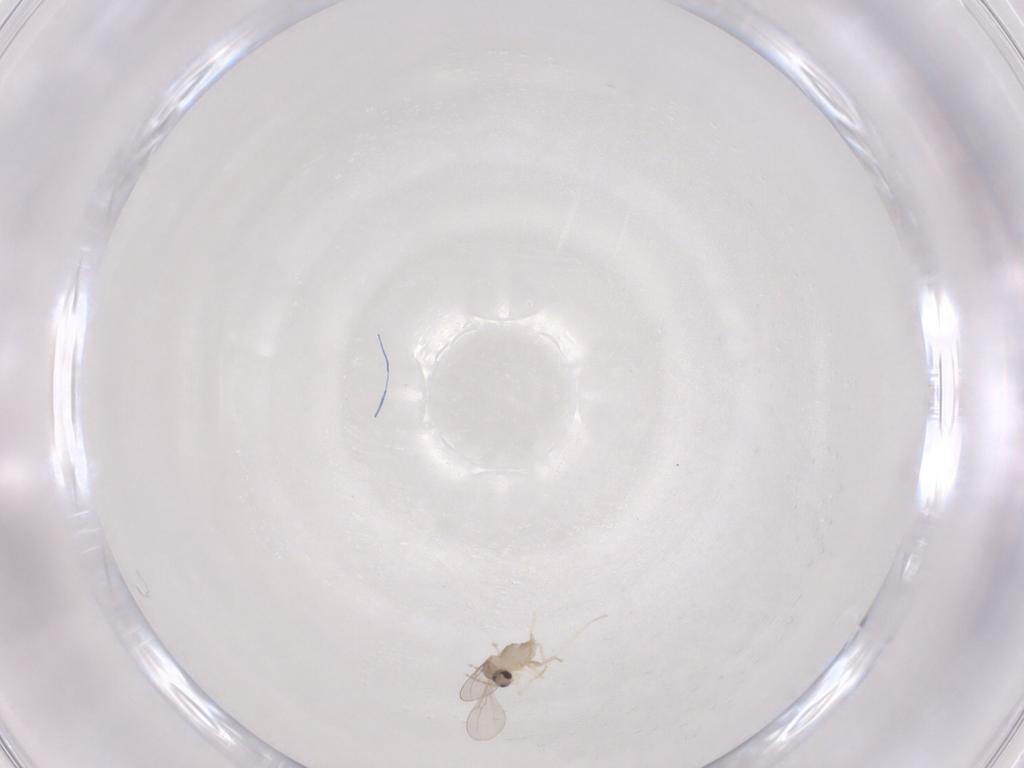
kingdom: Animalia
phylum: Arthropoda
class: Insecta
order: Diptera
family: Cecidomyiidae
